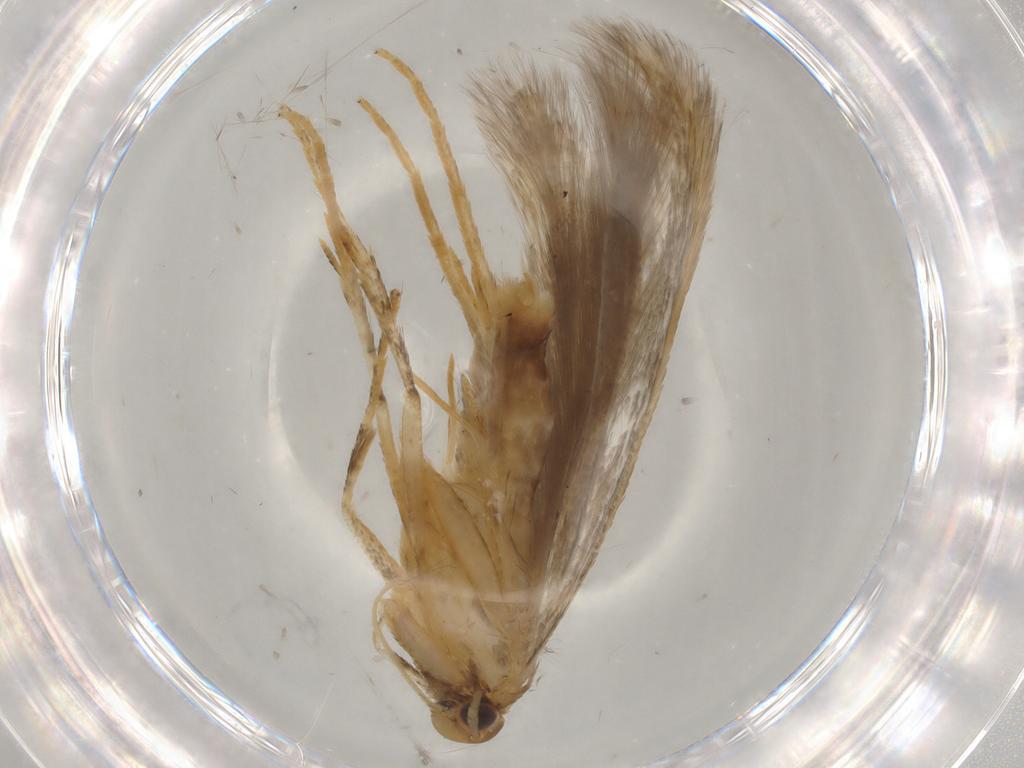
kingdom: Animalia
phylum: Arthropoda
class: Insecta
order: Lepidoptera
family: Gelechiidae
